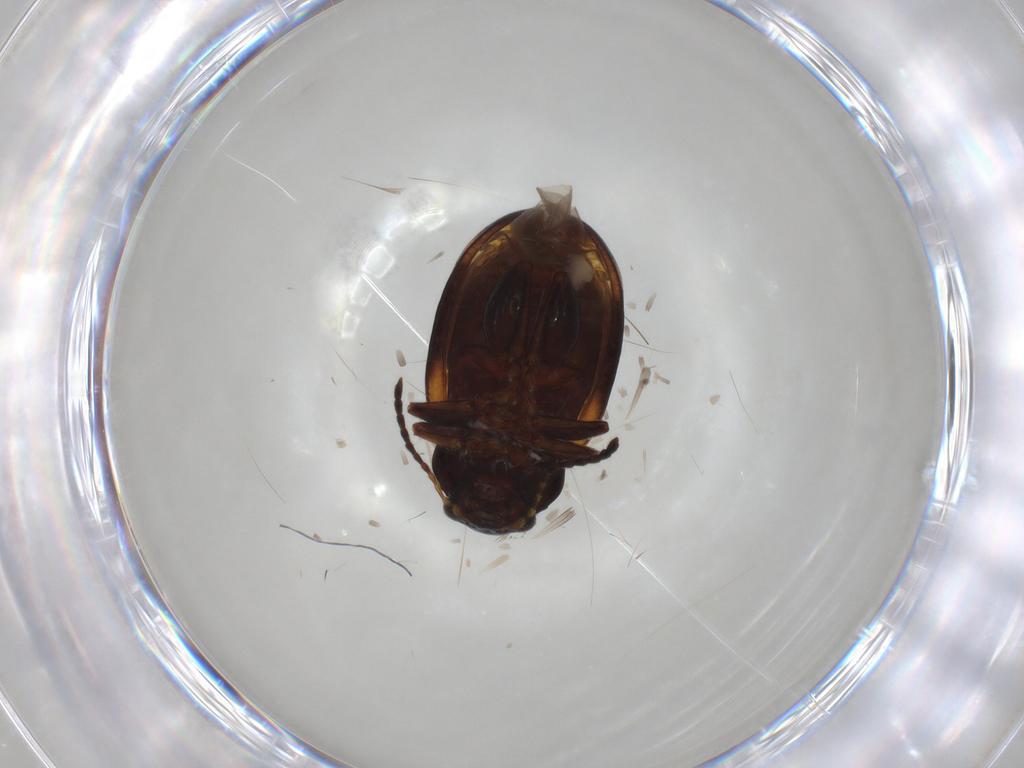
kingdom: Animalia
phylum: Arthropoda
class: Insecta
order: Coleoptera
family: Chrysomelidae
